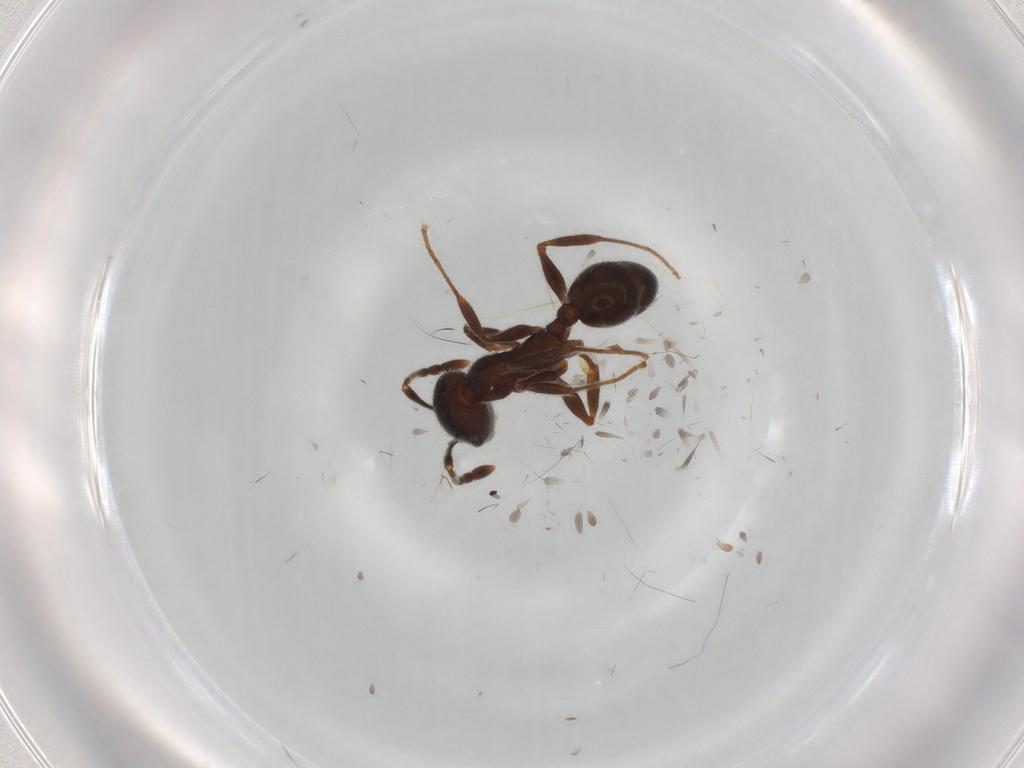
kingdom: Animalia
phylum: Arthropoda
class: Insecta
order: Hymenoptera
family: Formicidae
